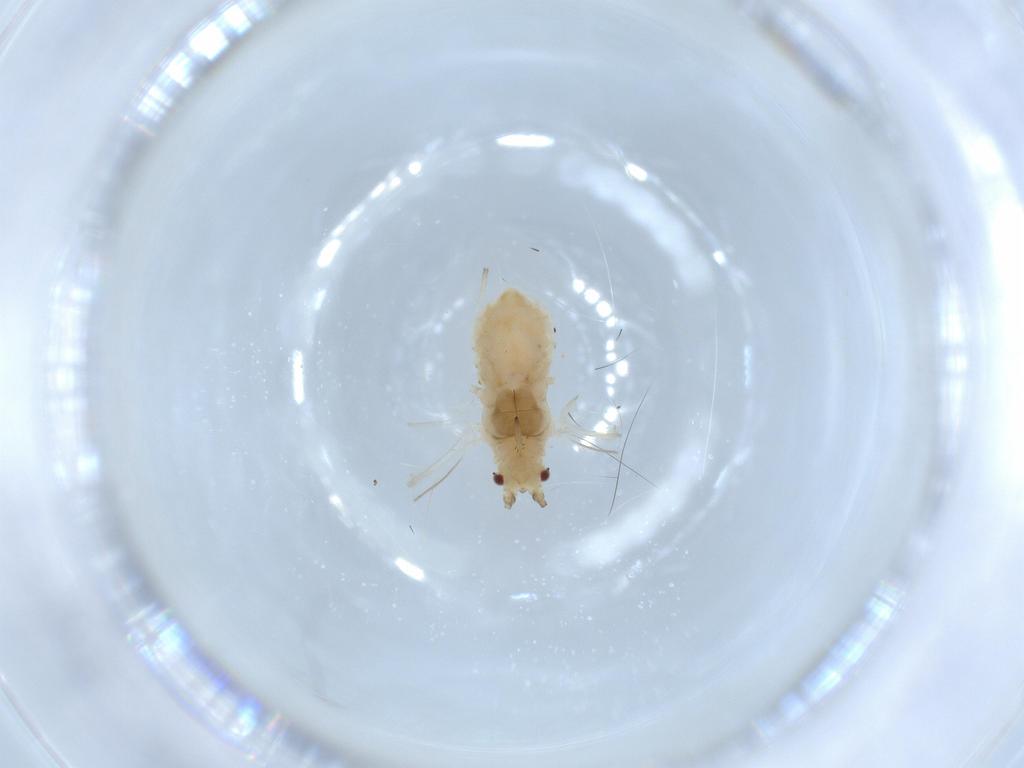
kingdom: Animalia
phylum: Arthropoda
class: Insecta
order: Hemiptera
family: Aphididae
